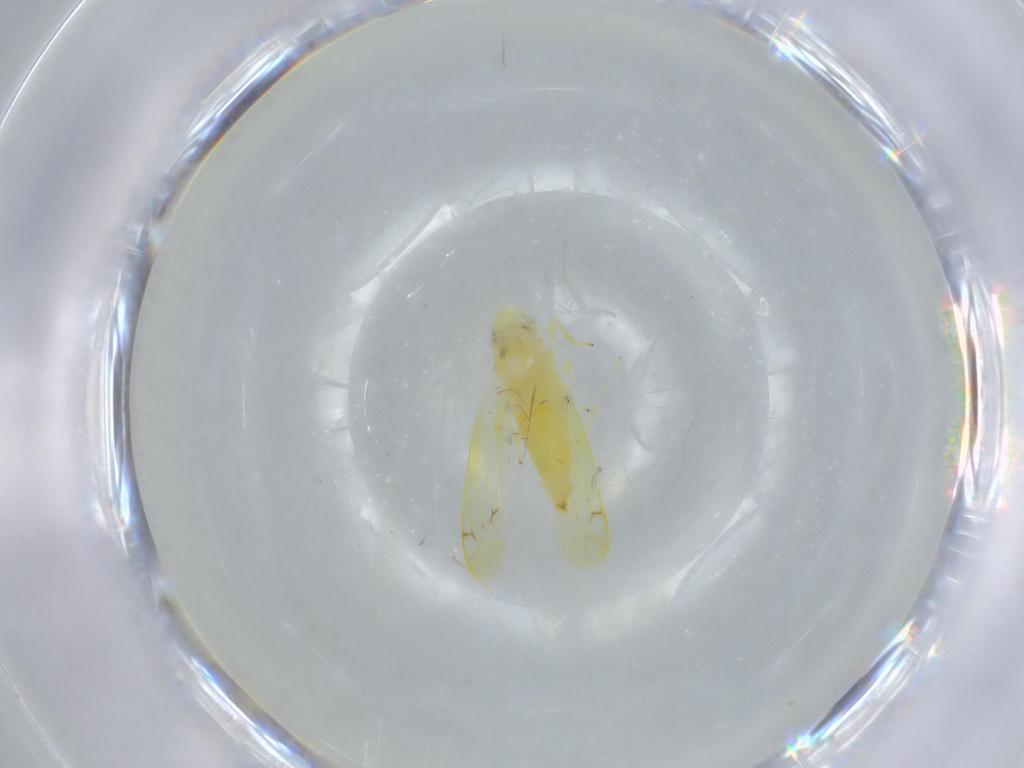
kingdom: Animalia
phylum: Arthropoda
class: Insecta
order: Hemiptera
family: Cicadellidae
